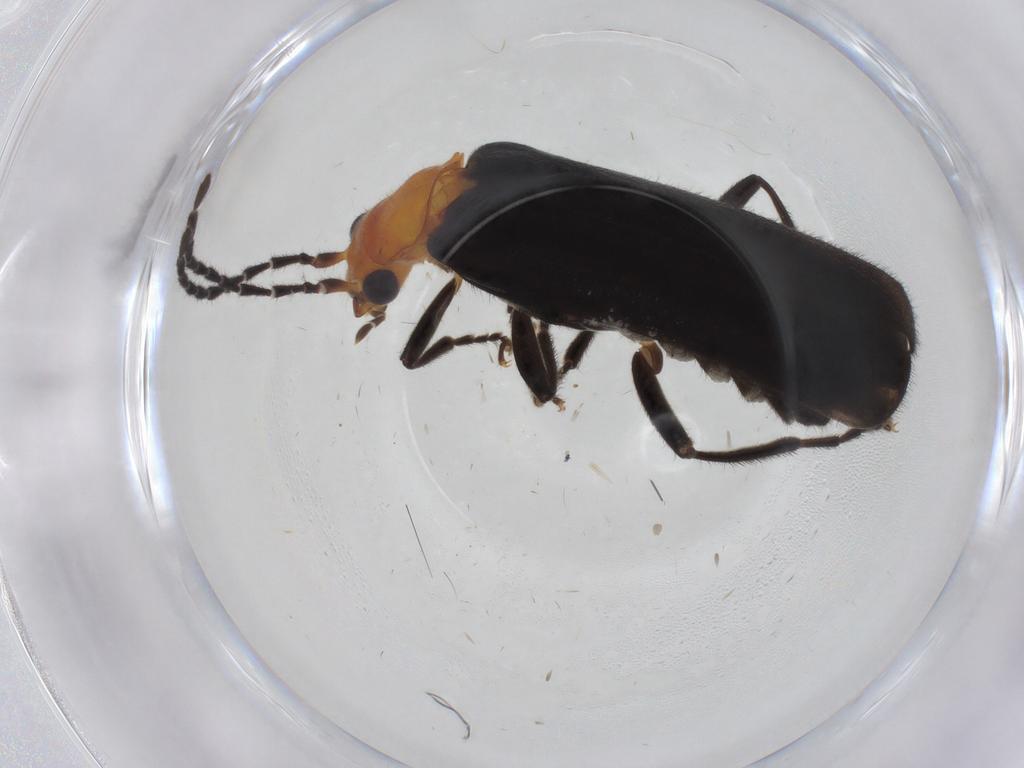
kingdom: Animalia
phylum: Arthropoda
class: Insecta
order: Coleoptera
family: Cantharidae
